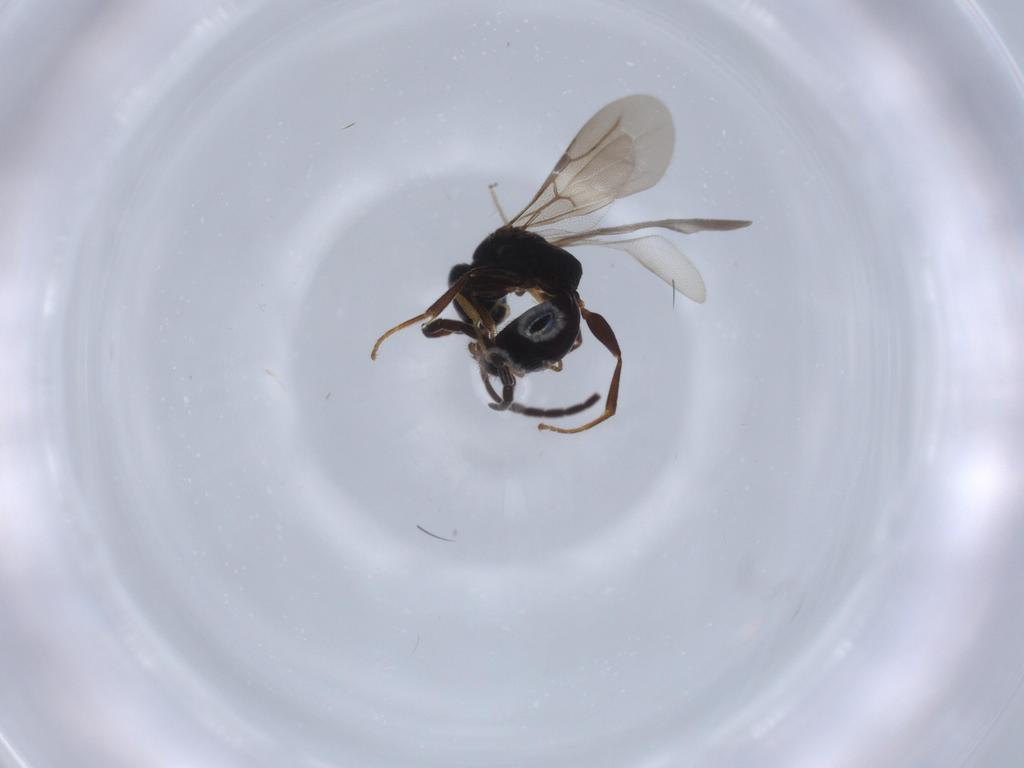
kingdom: Animalia
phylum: Arthropoda
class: Insecta
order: Hymenoptera
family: Bethylidae
